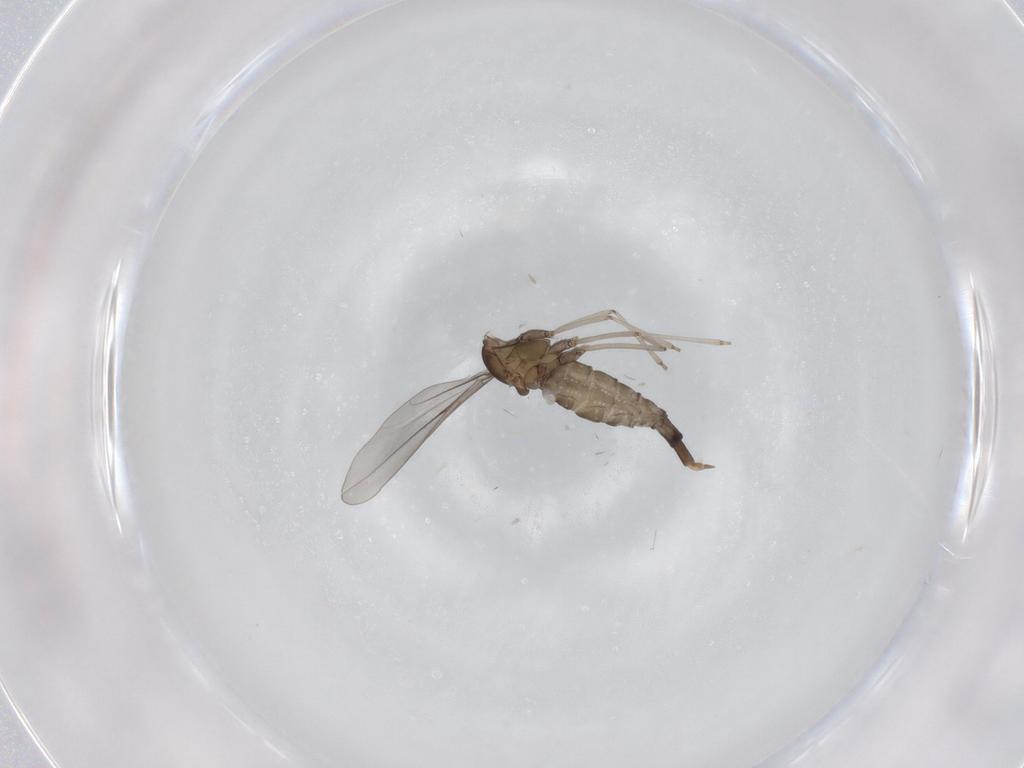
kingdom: Animalia
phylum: Arthropoda
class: Insecta
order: Diptera
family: Cecidomyiidae
